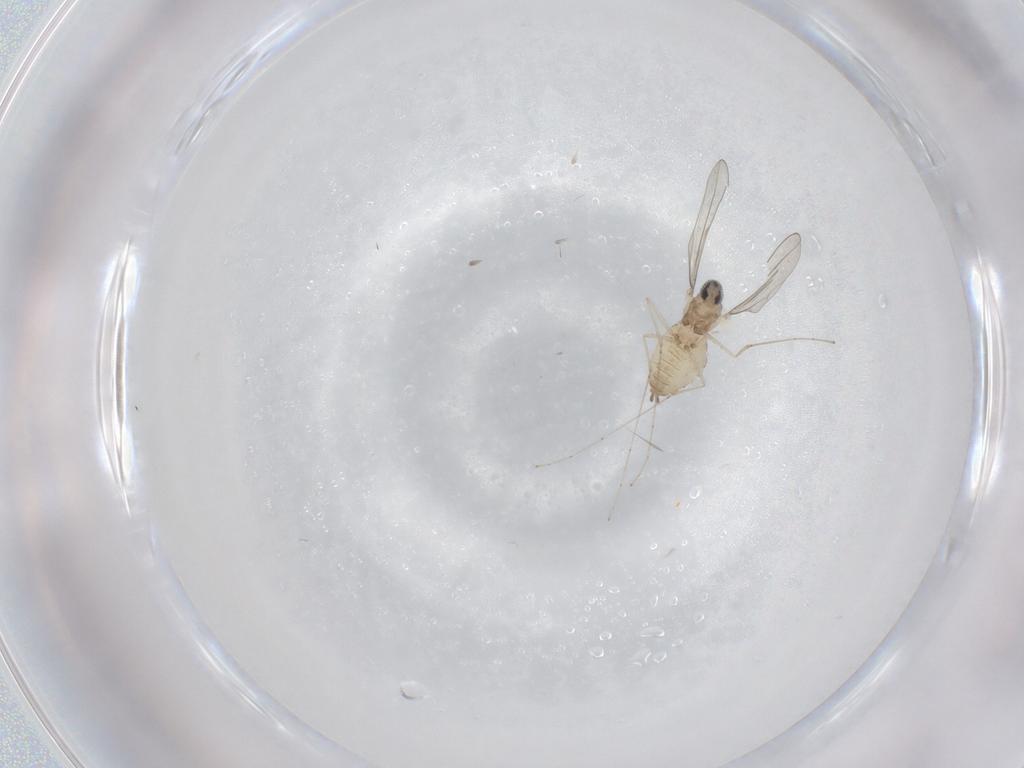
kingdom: Animalia
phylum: Arthropoda
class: Insecta
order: Diptera
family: Cecidomyiidae
